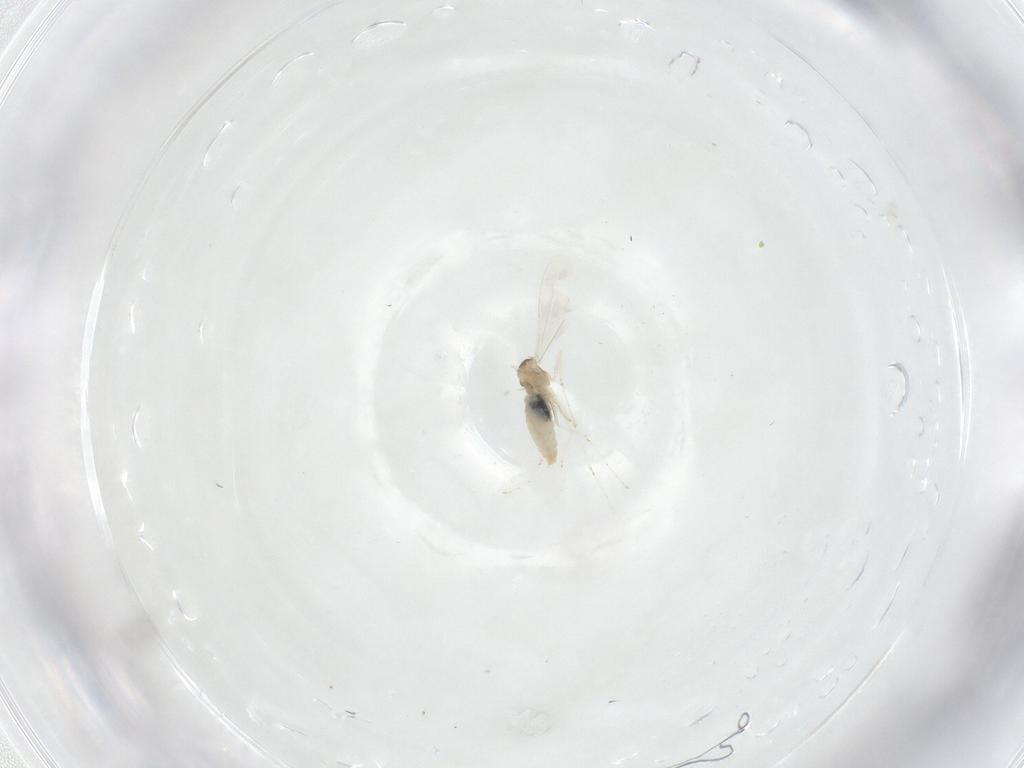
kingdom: Animalia
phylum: Arthropoda
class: Insecta
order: Diptera
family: Cecidomyiidae
